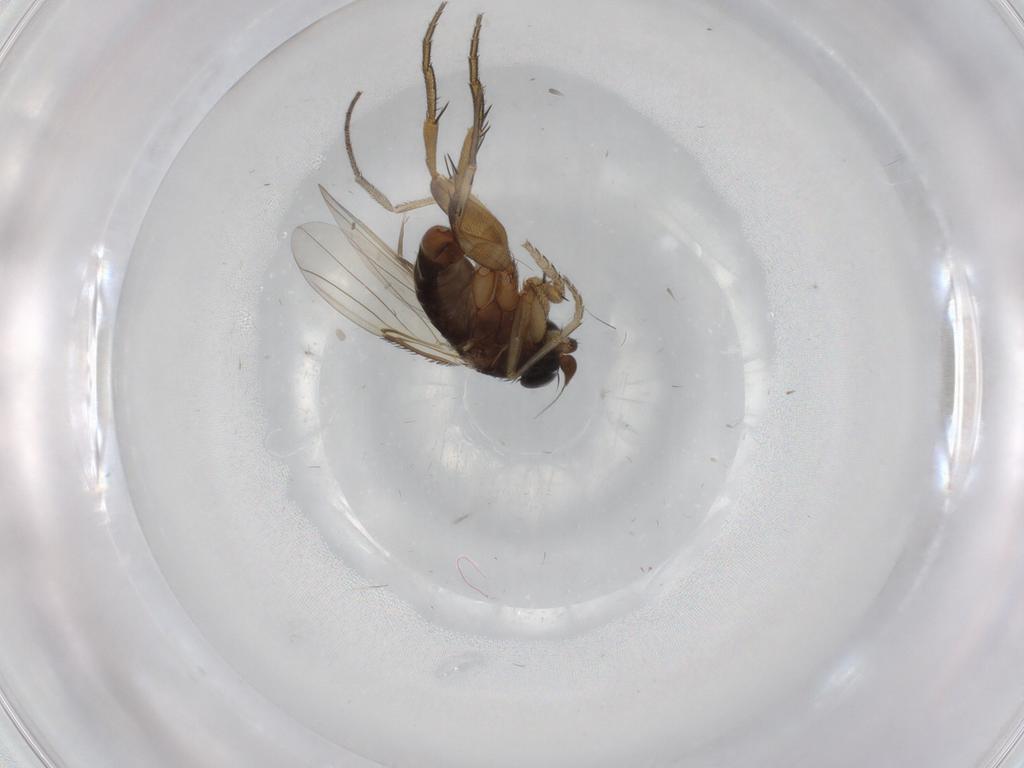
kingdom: Animalia
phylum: Arthropoda
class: Insecta
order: Diptera
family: Phoridae
